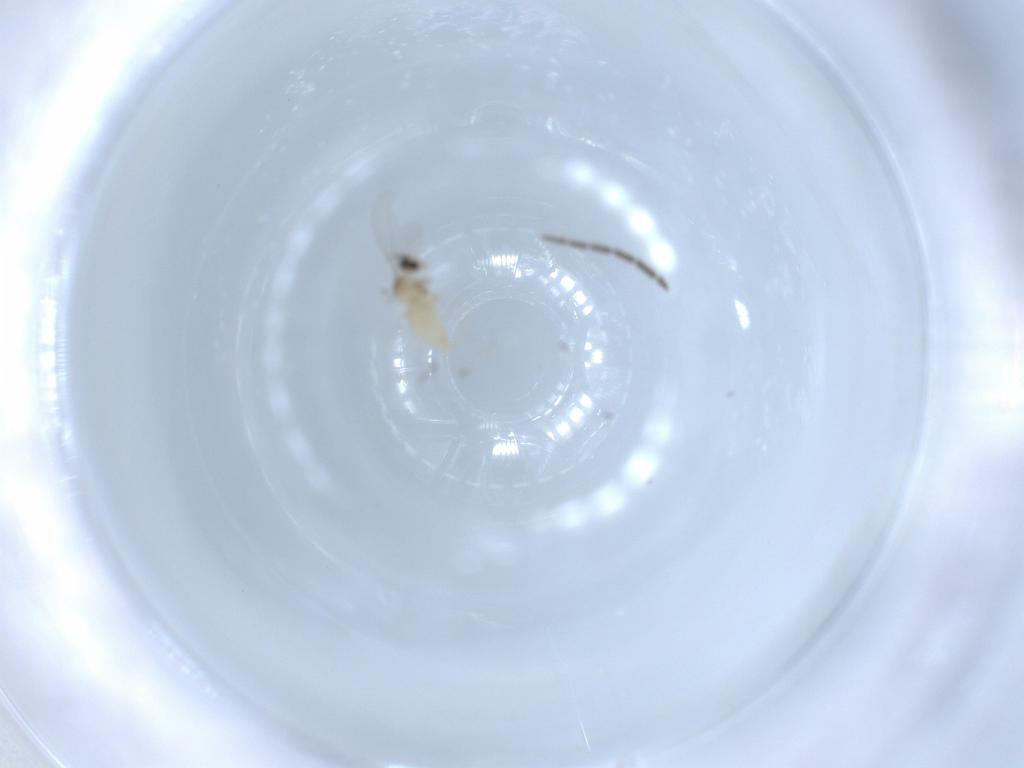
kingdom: Animalia
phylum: Arthropoda
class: Insecta
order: Diptera
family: Cecidomyiidae
